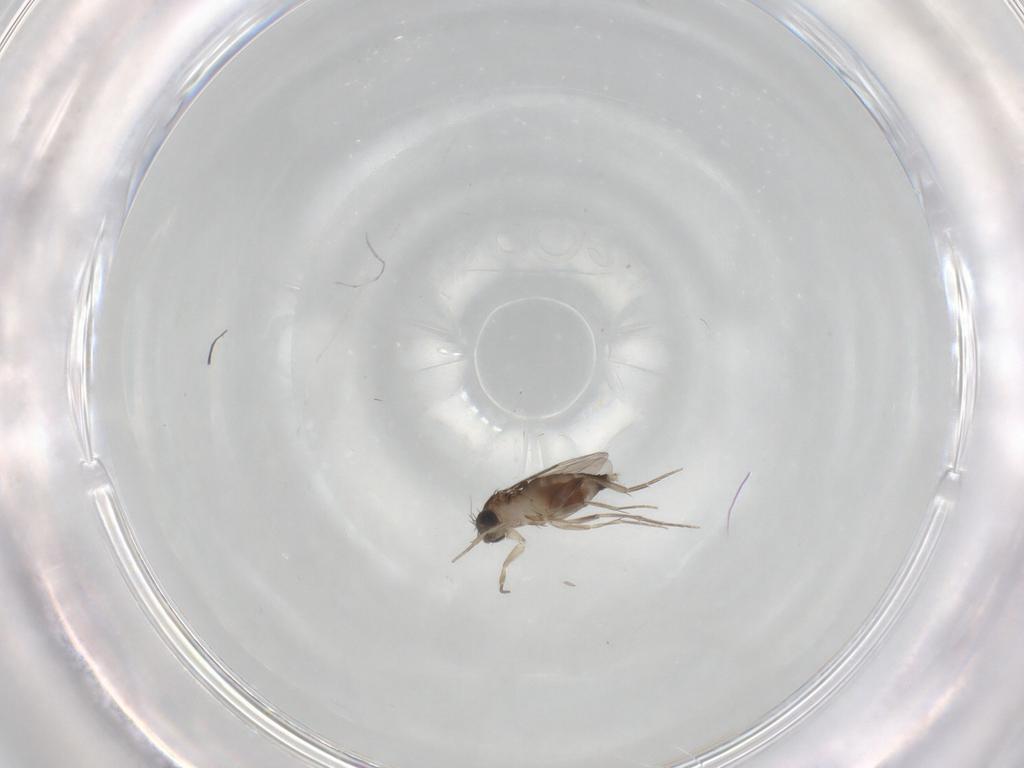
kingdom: Animalia
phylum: Arthropoda
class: Insecta
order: Diptera
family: Phoridae
